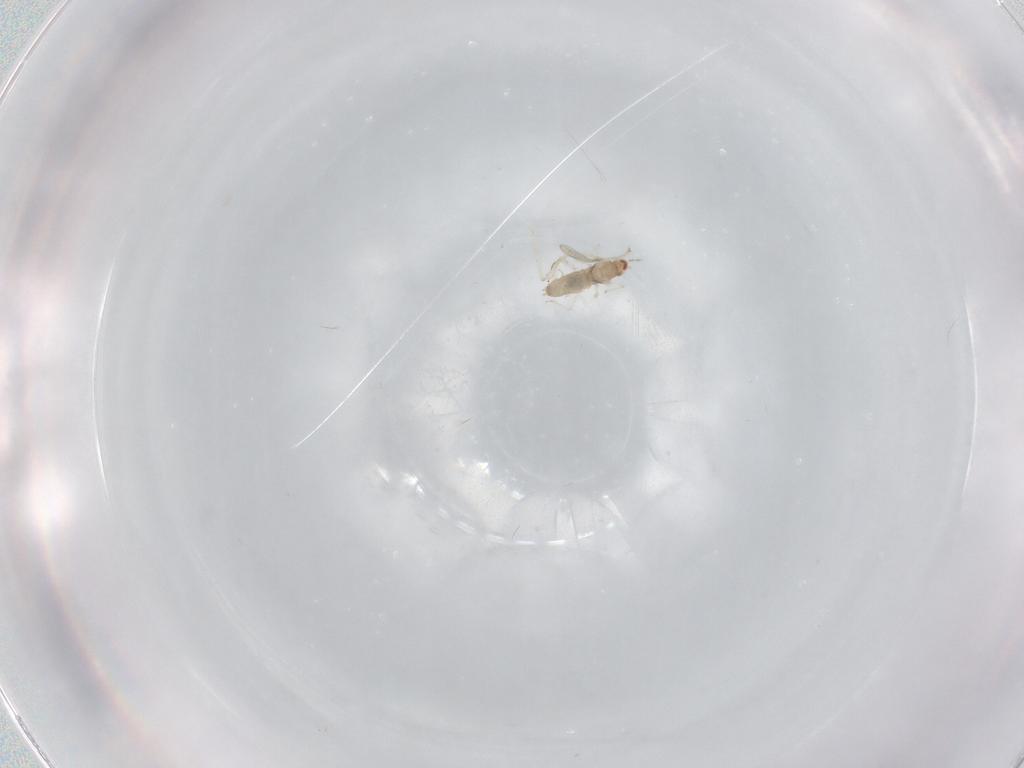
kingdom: Animalia
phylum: Arthropoda
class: Insecta
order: Diptera
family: Cecidomyiidae
